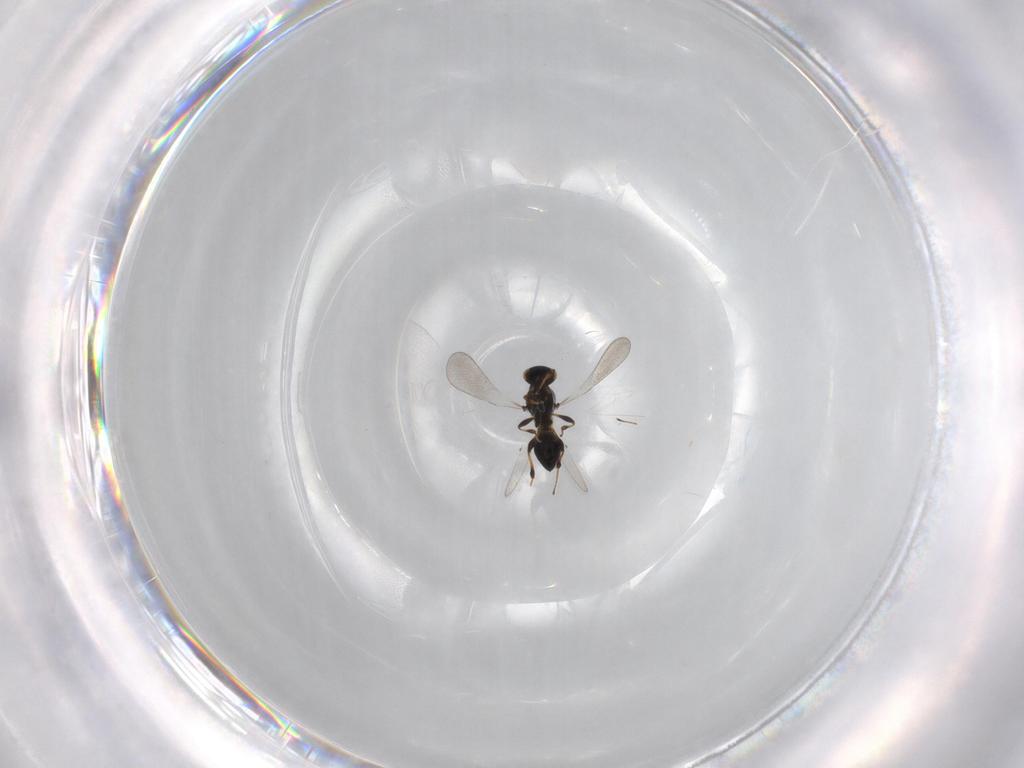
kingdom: Animalia
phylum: Arthropoda
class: Insecta
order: Hymenoptera
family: Platygastridae
